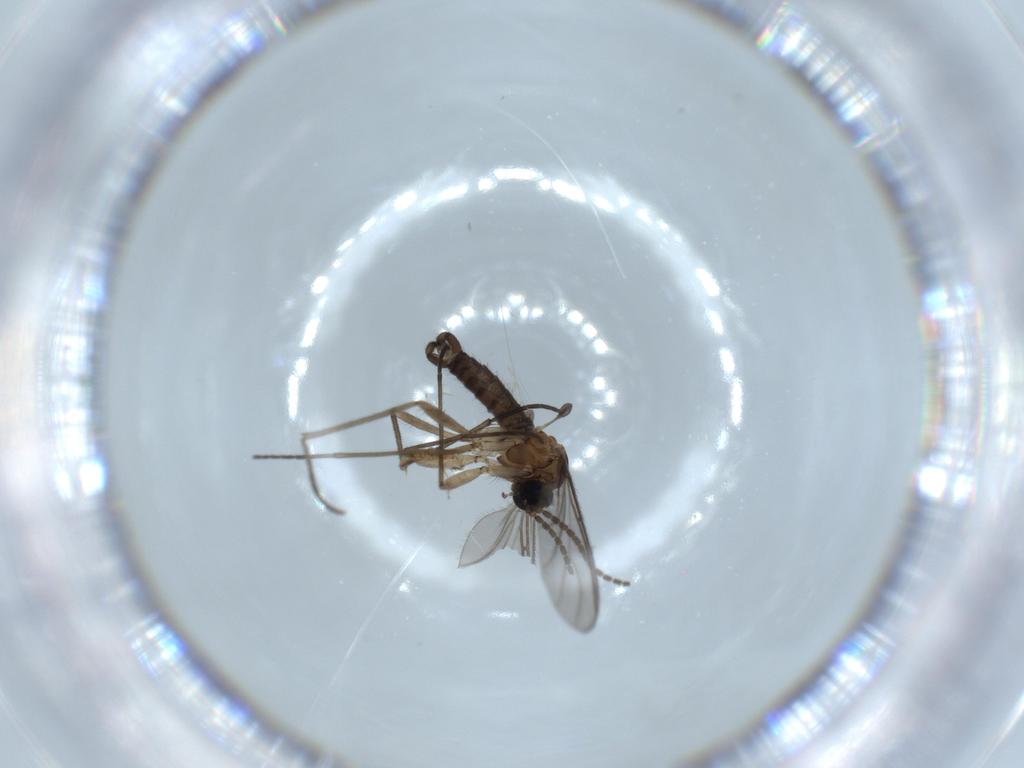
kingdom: Animalia
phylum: Arthropoda
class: Insecta
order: Diptera
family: Sciaridae
